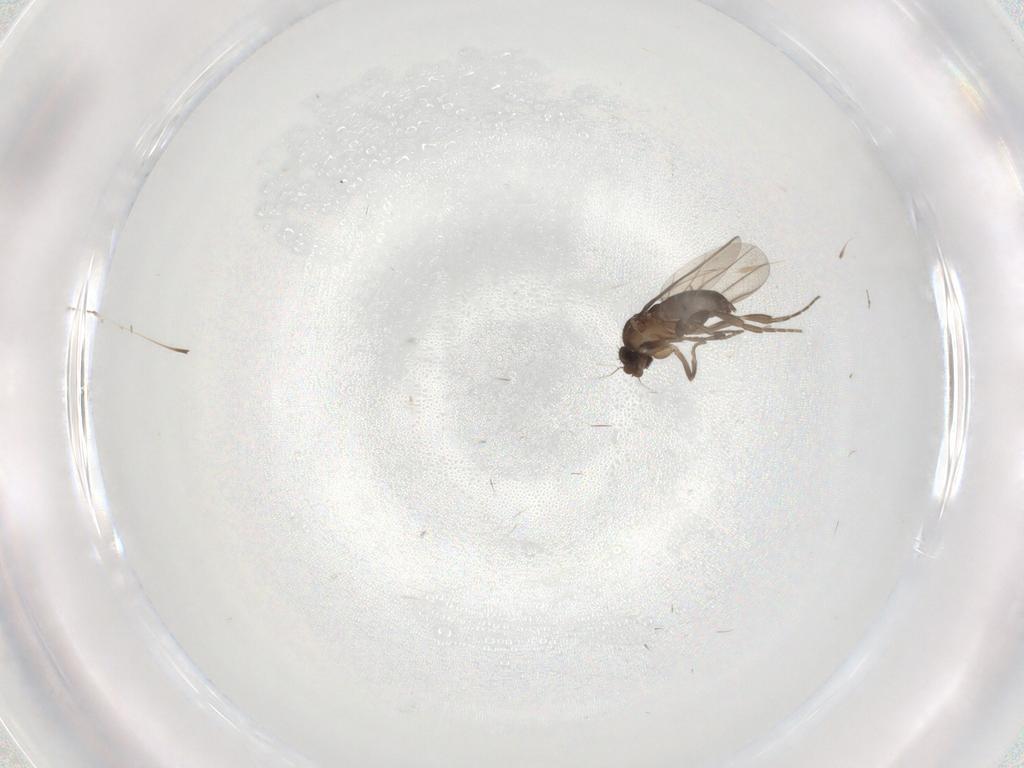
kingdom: Animalia
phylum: Arthropoda
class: Insecta
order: Diptera
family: Phoridae
